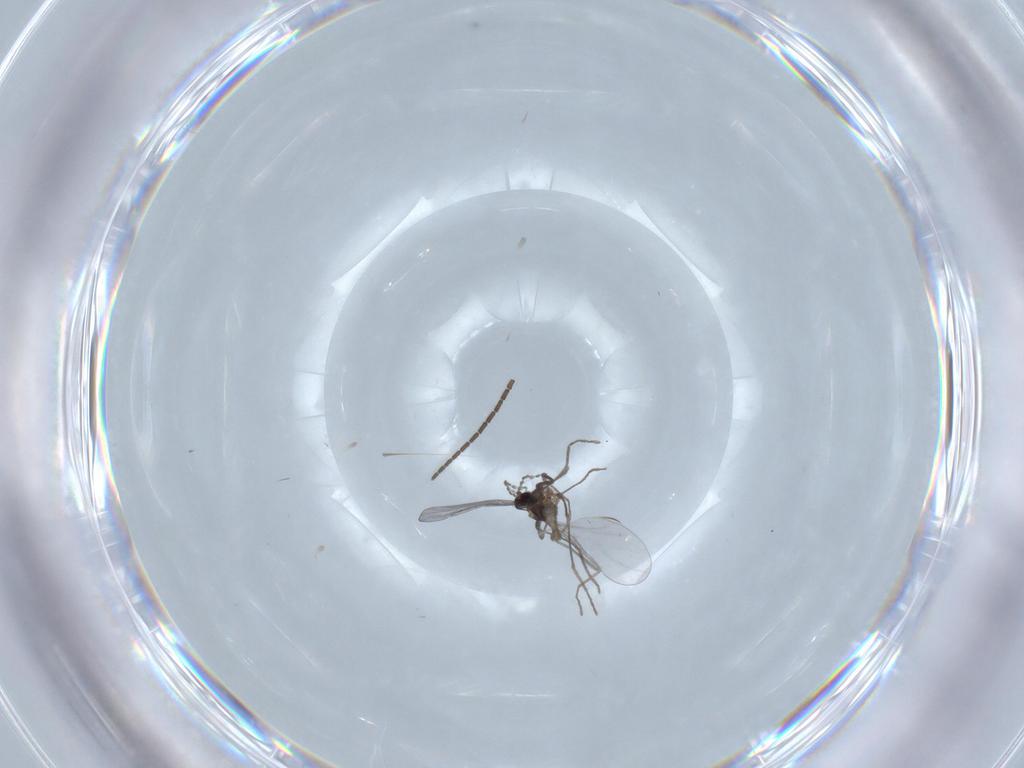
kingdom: Animalia
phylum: Arthropoda
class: Insecta
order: Diptera
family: Sciaridae
